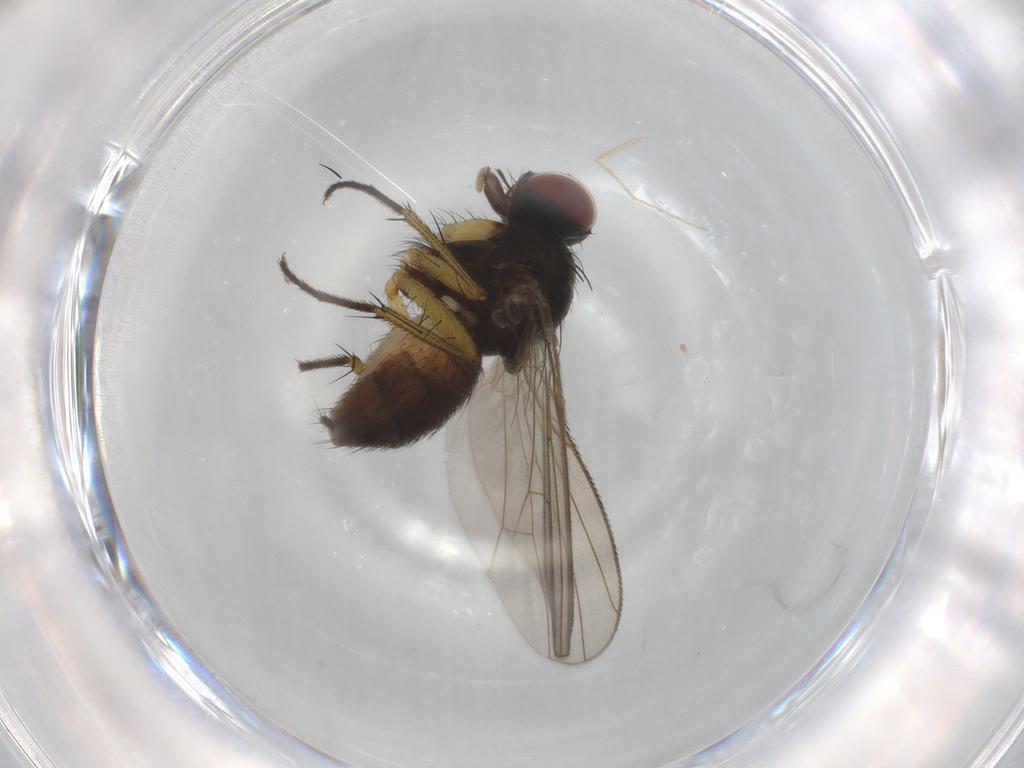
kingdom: Animalia
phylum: Arthropoda
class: Insecta
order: Diptera
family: Muscidae
